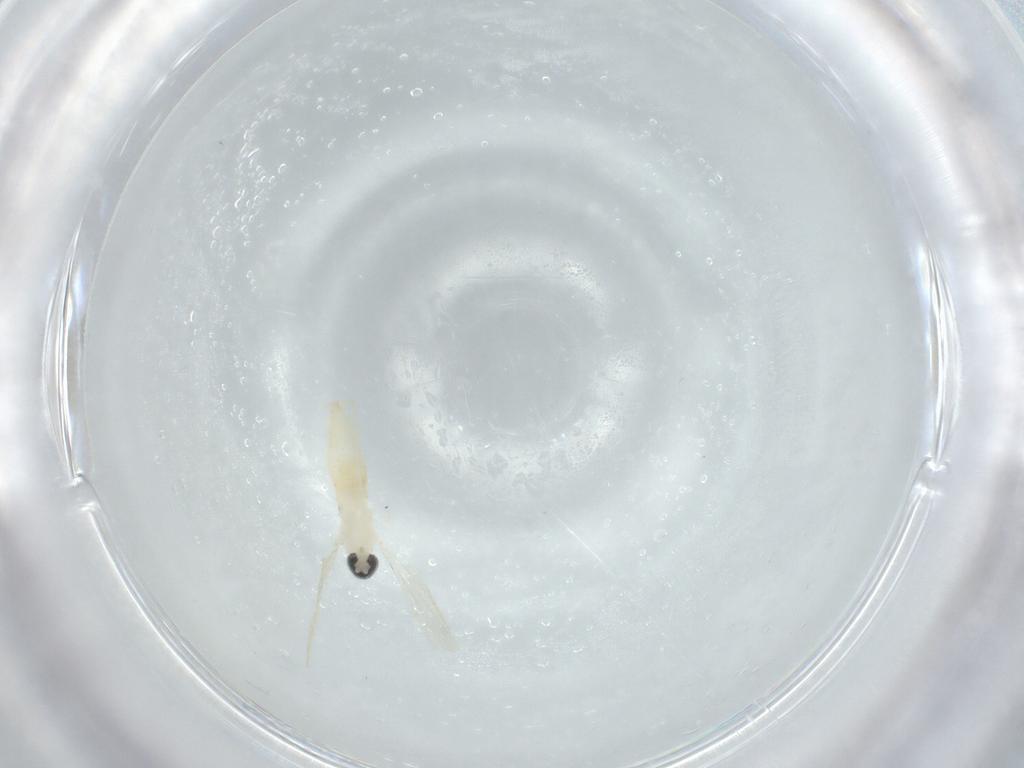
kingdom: Animalia
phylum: Arthropoda
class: Insecta
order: Diptera
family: Cecidomyiidae
